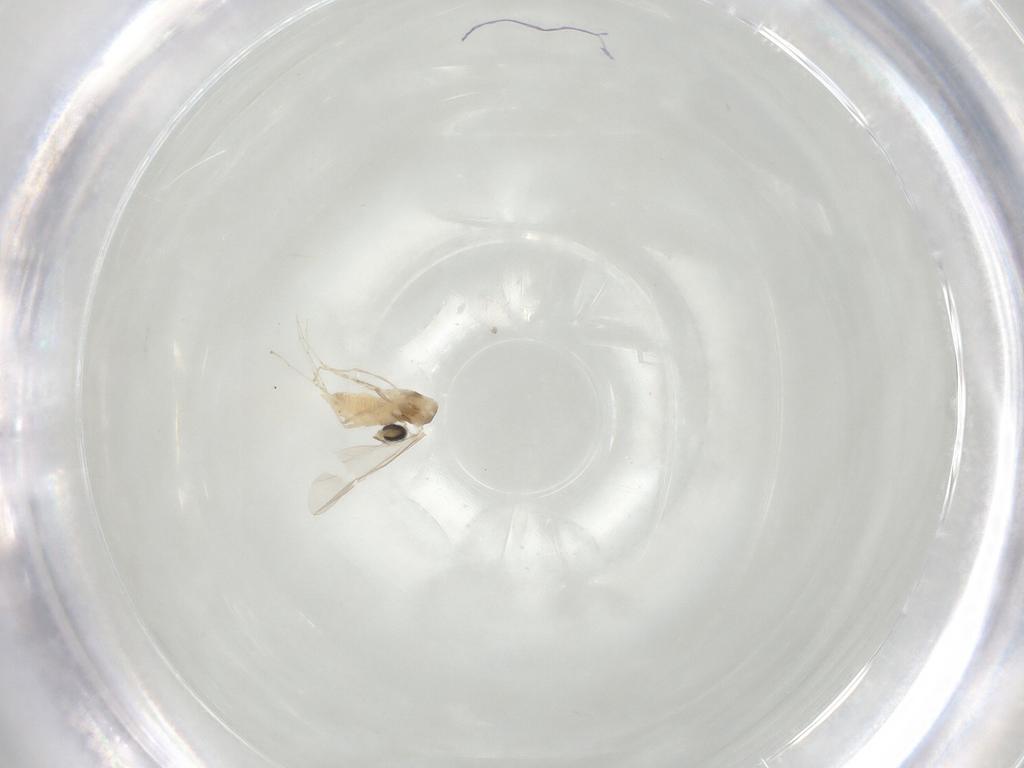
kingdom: Animalia
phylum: Arthropoda
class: Insecta
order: Diptera
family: Cecidomyiidae
